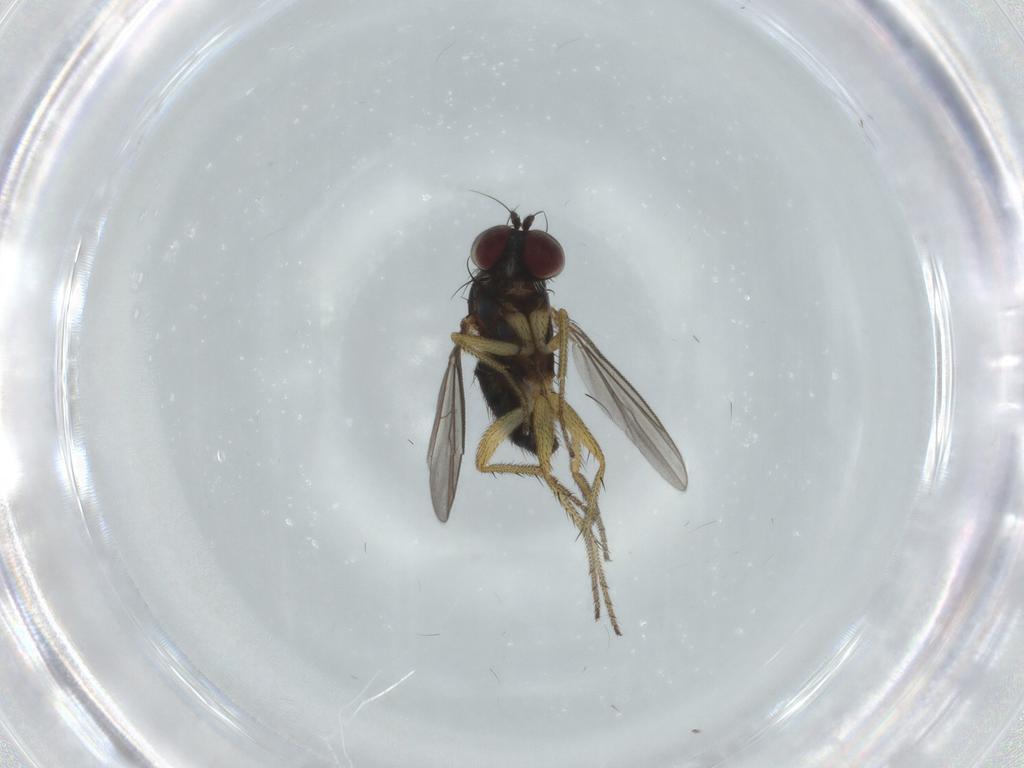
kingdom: Animalia
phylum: Arthropoda
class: Insecta
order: Diptera
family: Dolichopodidae
